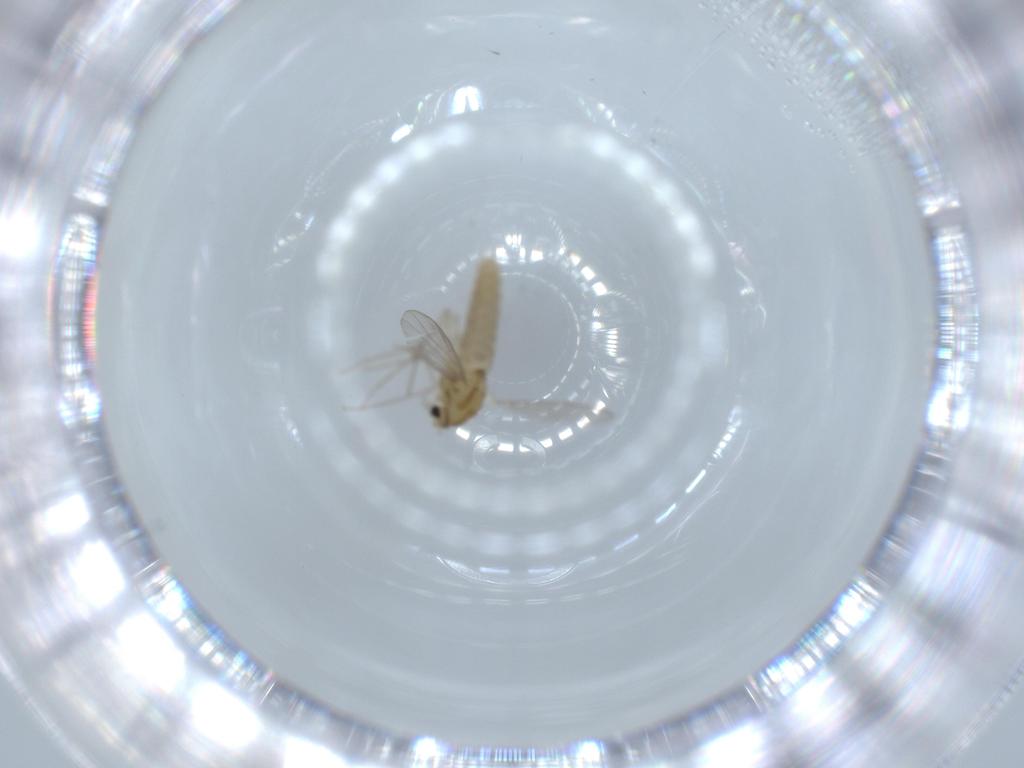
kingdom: Animalia
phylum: Arthropoda
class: Insecta
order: Diptera
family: Chironomidae
